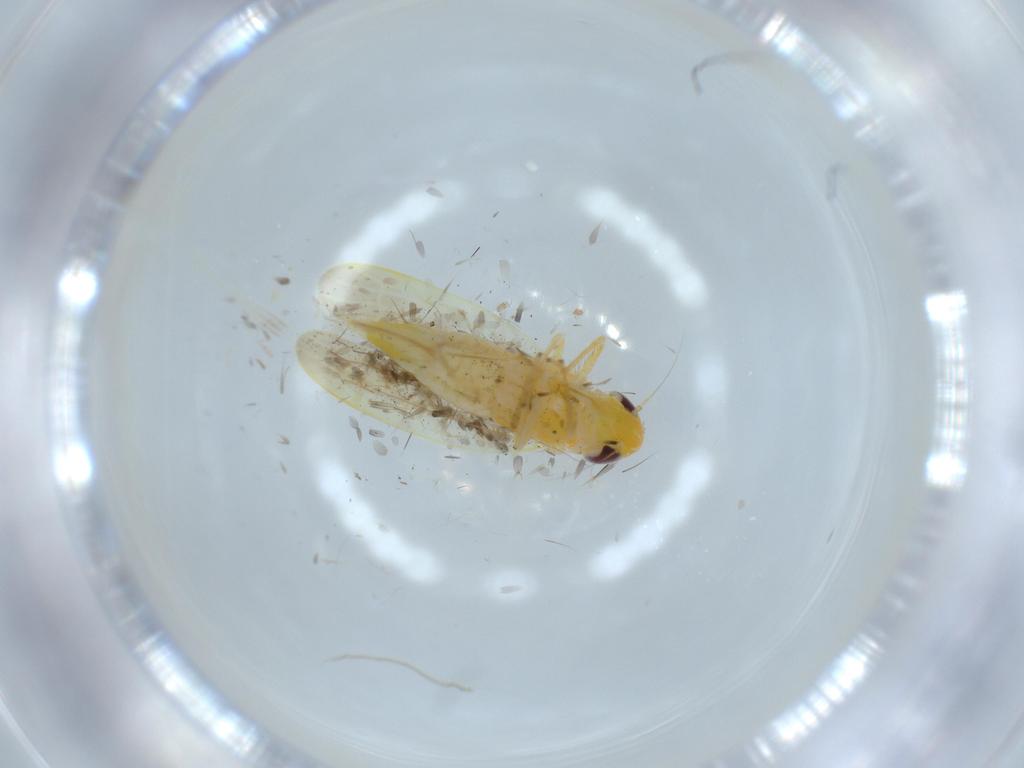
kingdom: Animalia
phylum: Arthropoda
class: Insecta
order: Hemiptera
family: Cicadellidae
